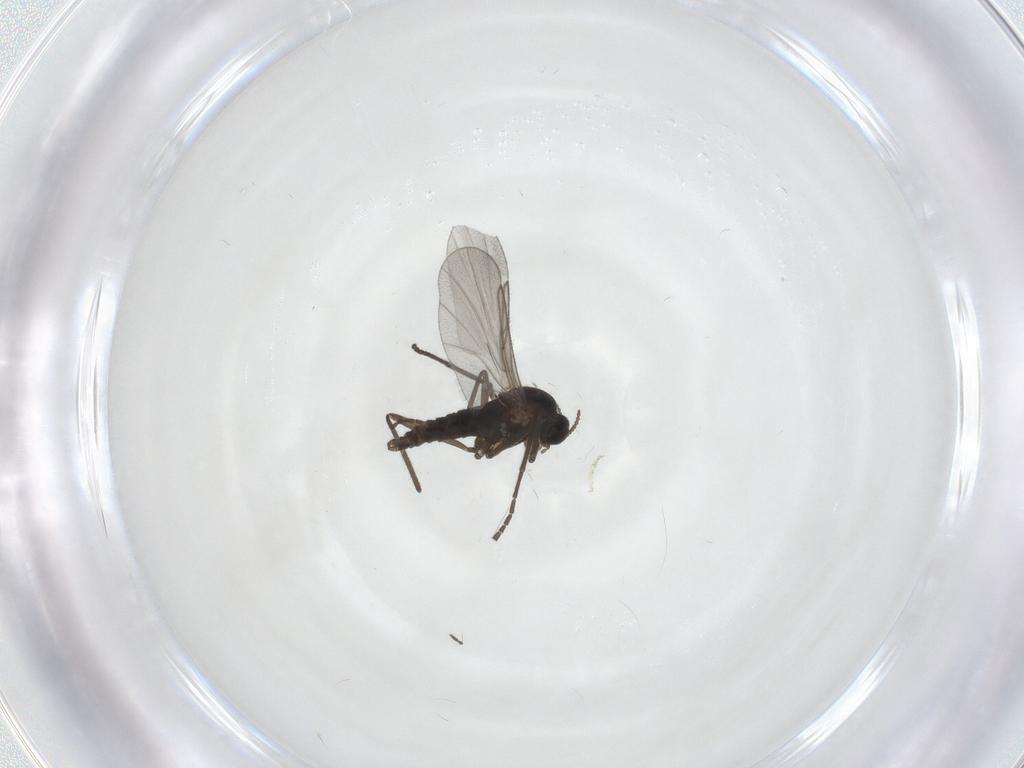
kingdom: Animalia
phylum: Arthropoda
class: Insecta
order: Diptera
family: Cecidomyiidae
